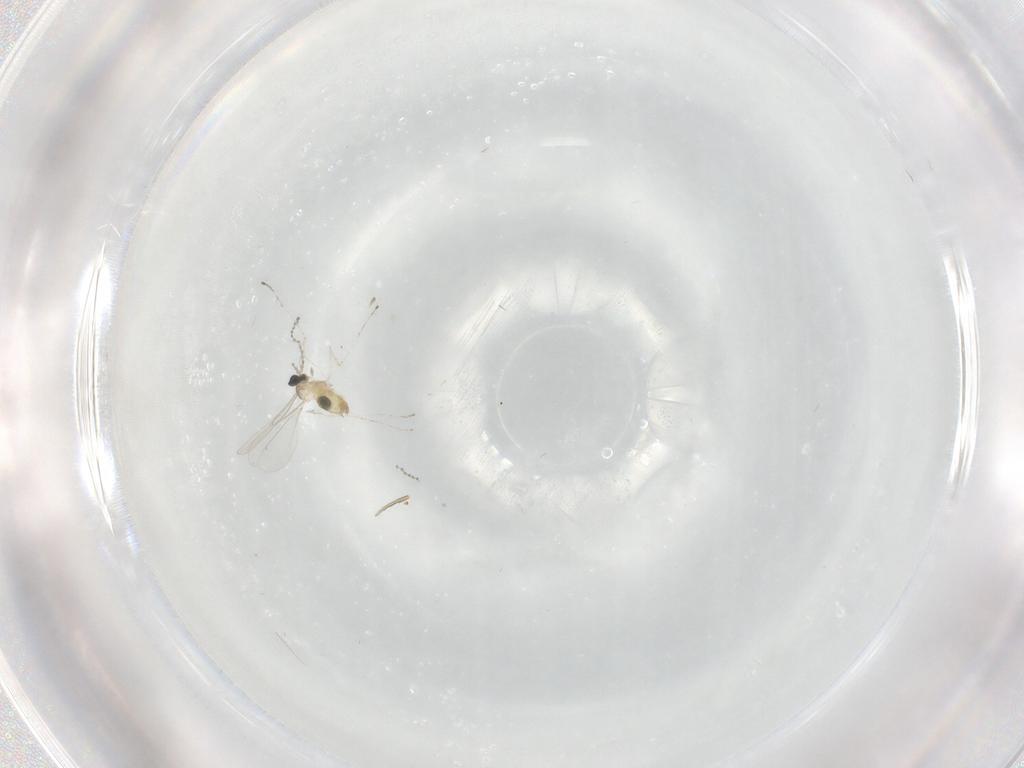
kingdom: Animalia
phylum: Arthropoda
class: Insecta
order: Diptera
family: Cecidomyiidae
